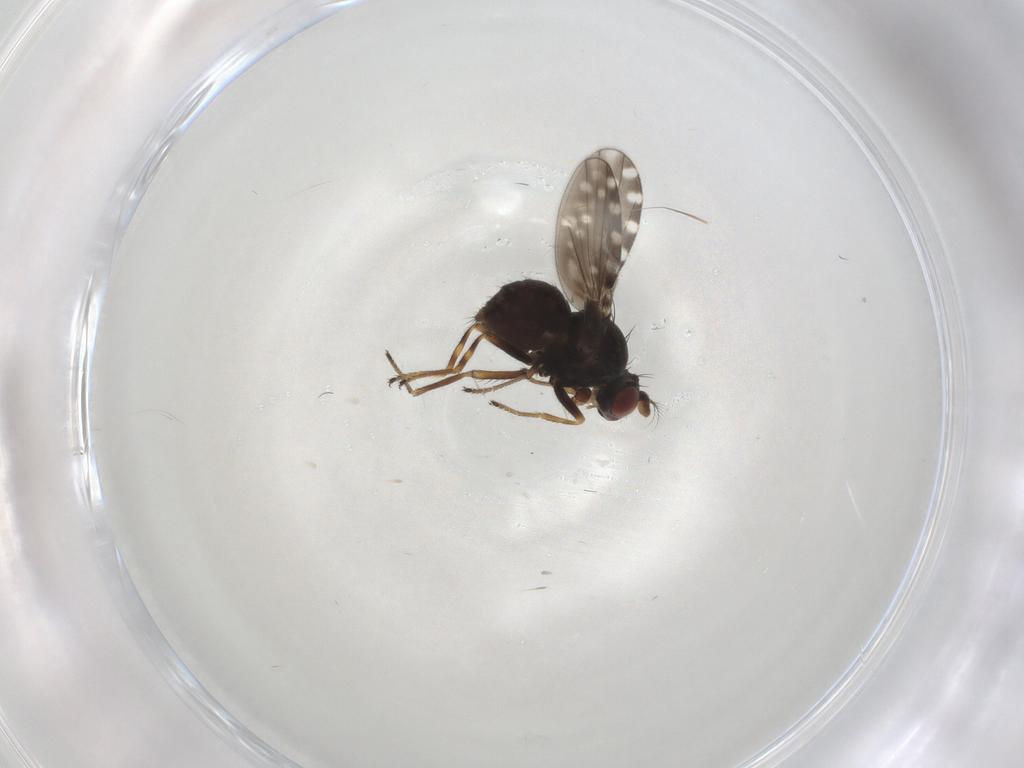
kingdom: Animalia
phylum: Arthropoda
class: Insecta
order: Diptera
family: Ephydridae
